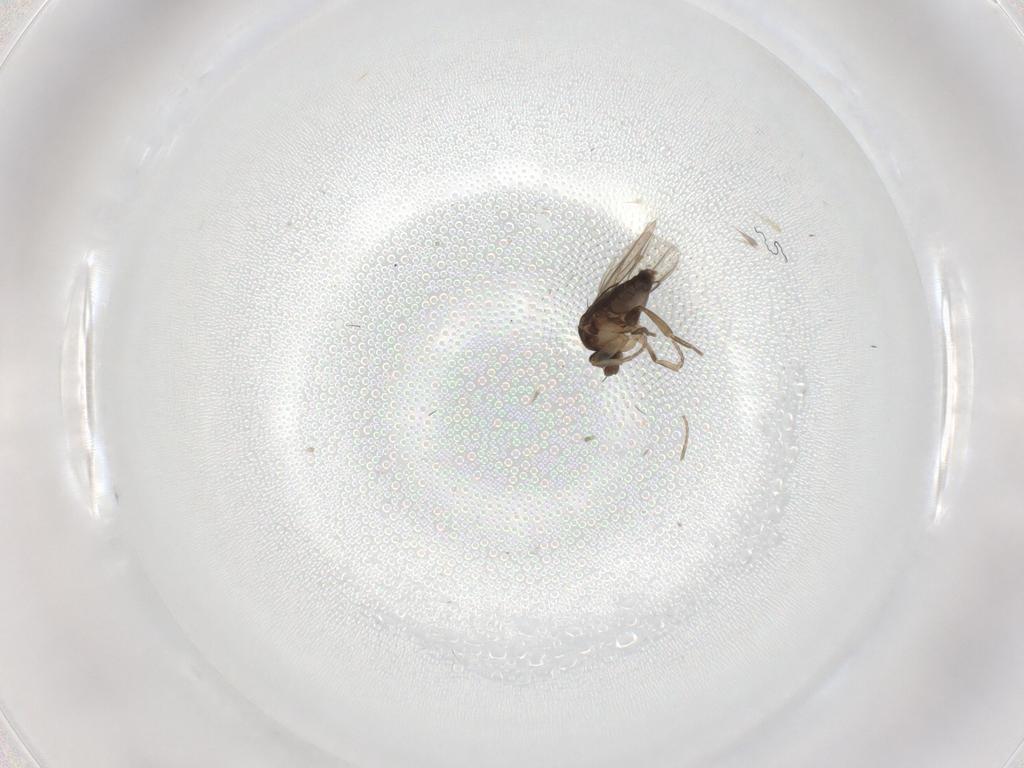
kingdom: Animalia
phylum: Arthropoda
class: Insecta
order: Diptera
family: Phoridae
